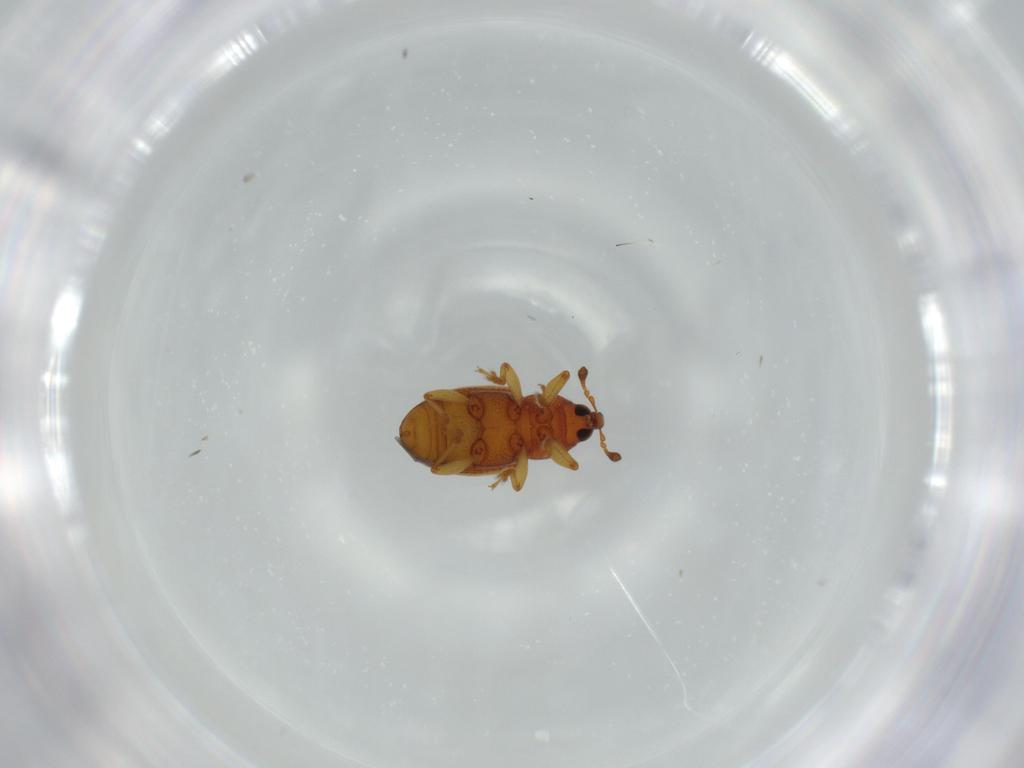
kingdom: Animalia
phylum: Arthropoda
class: Insecta
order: Coleoptera
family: Curculionidae
